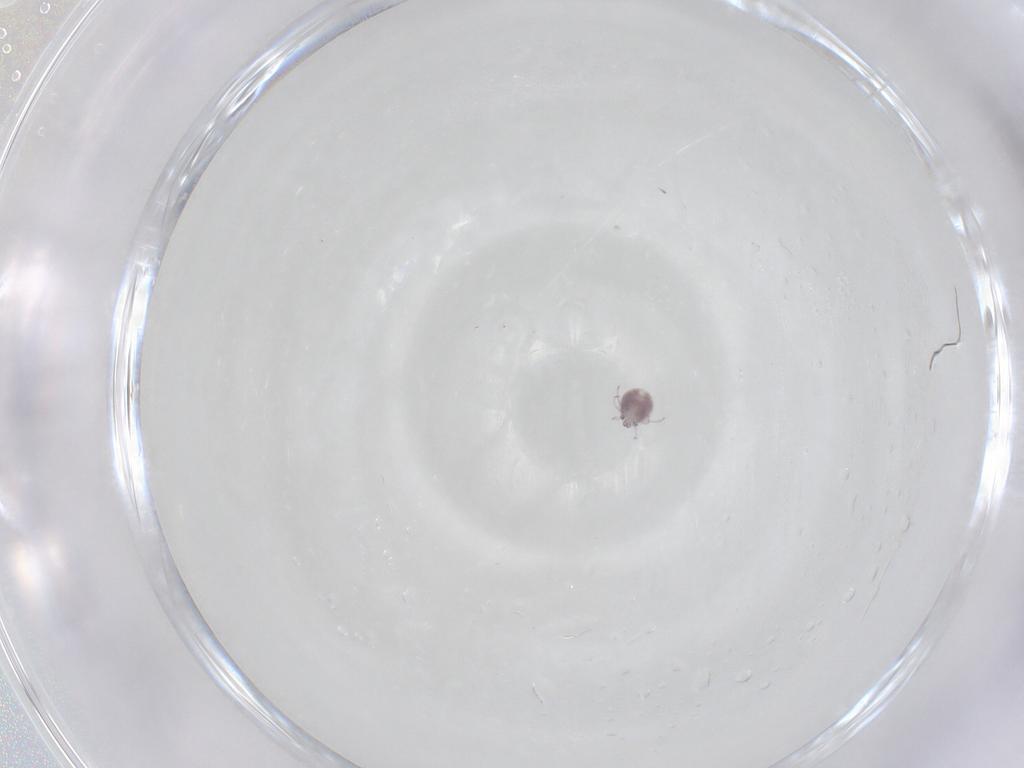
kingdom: Animalia
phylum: Arthropoda
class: Arachnida
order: Trombidiformes
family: Pionidae
